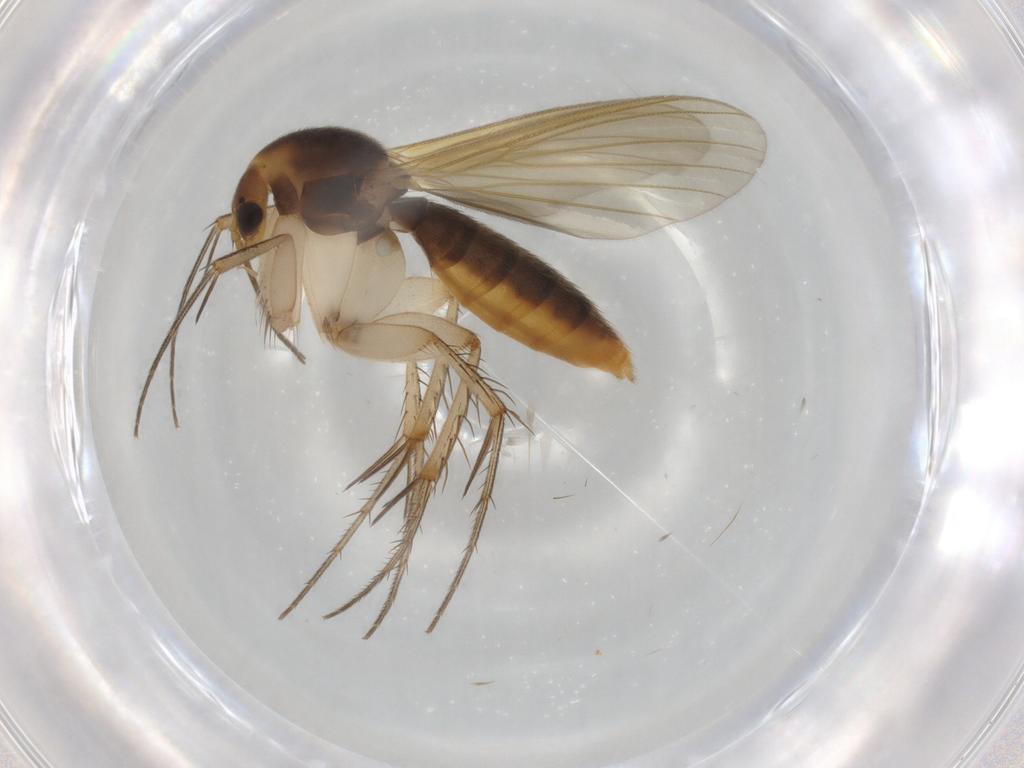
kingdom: Animalia
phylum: Arthropoda
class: Insecta
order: Diptera
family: Mycetophilidae
